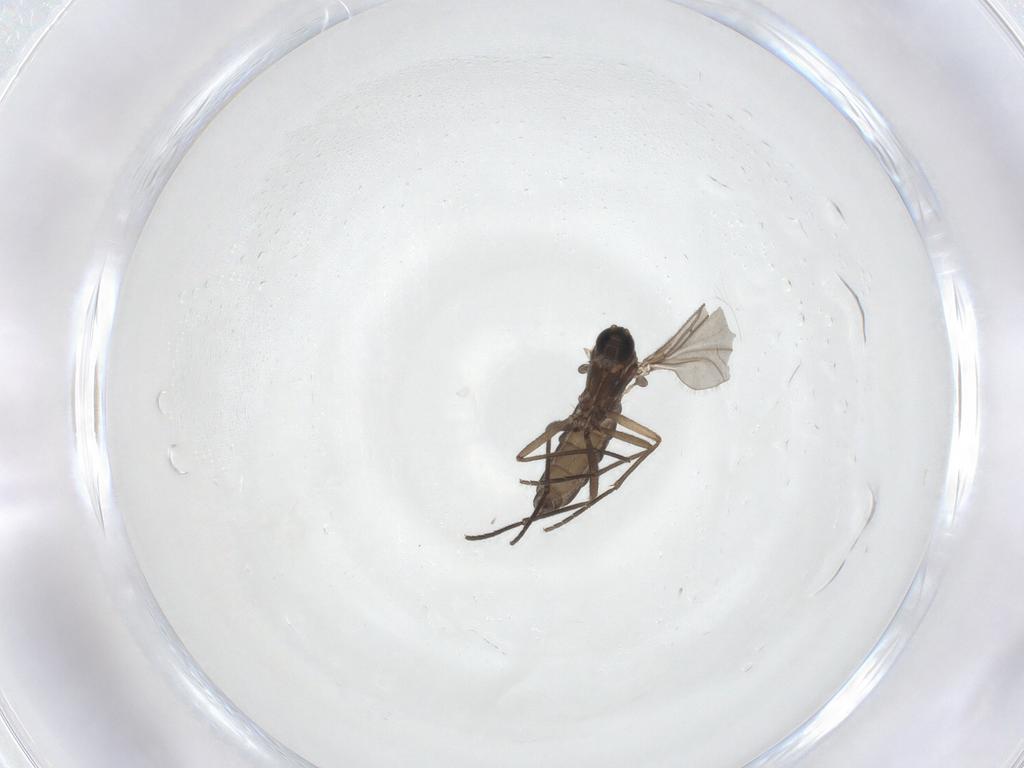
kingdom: Animalia
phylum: Arthropoda
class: Insecta
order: Diptera
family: Sciaridae
